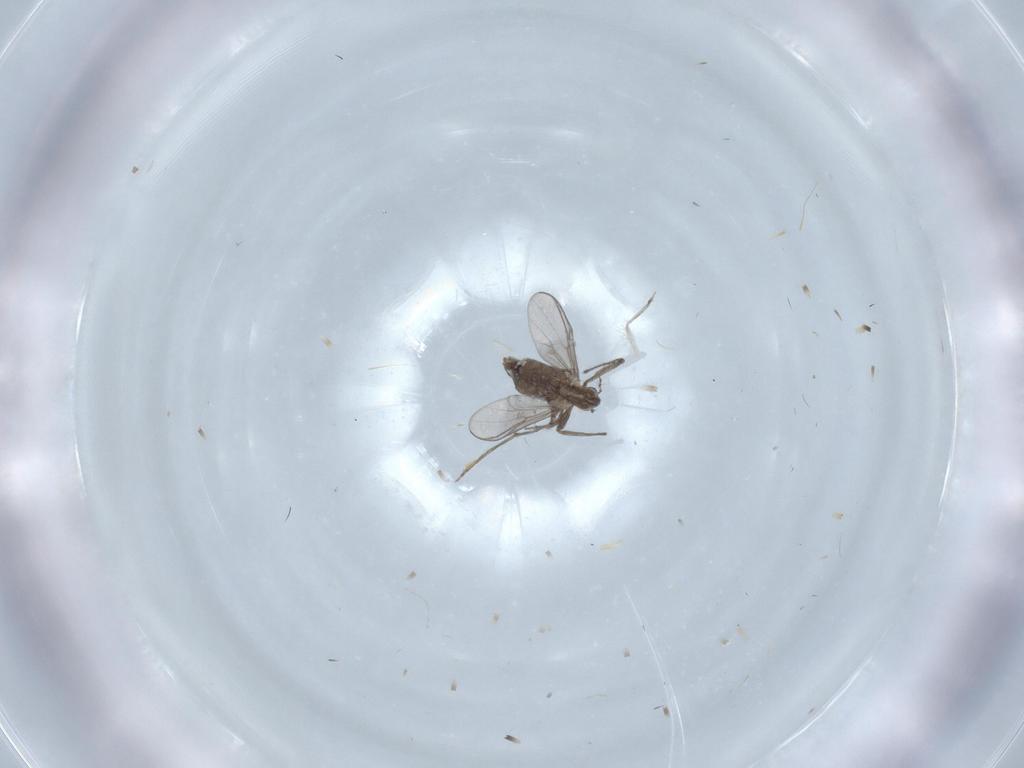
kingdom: Animalia
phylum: Arthropoda
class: Insecta
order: Diptera
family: Chironomidae
